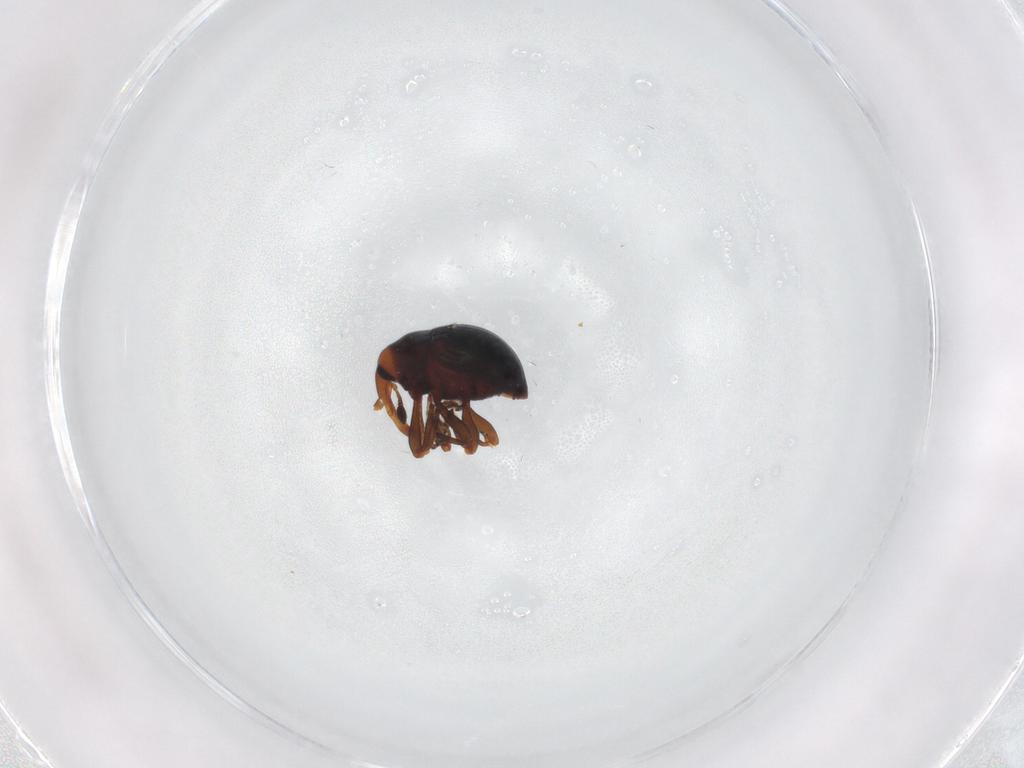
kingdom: Animalia
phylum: Arthropoda
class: Insecta
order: Coleoptera
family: Curculionidae
